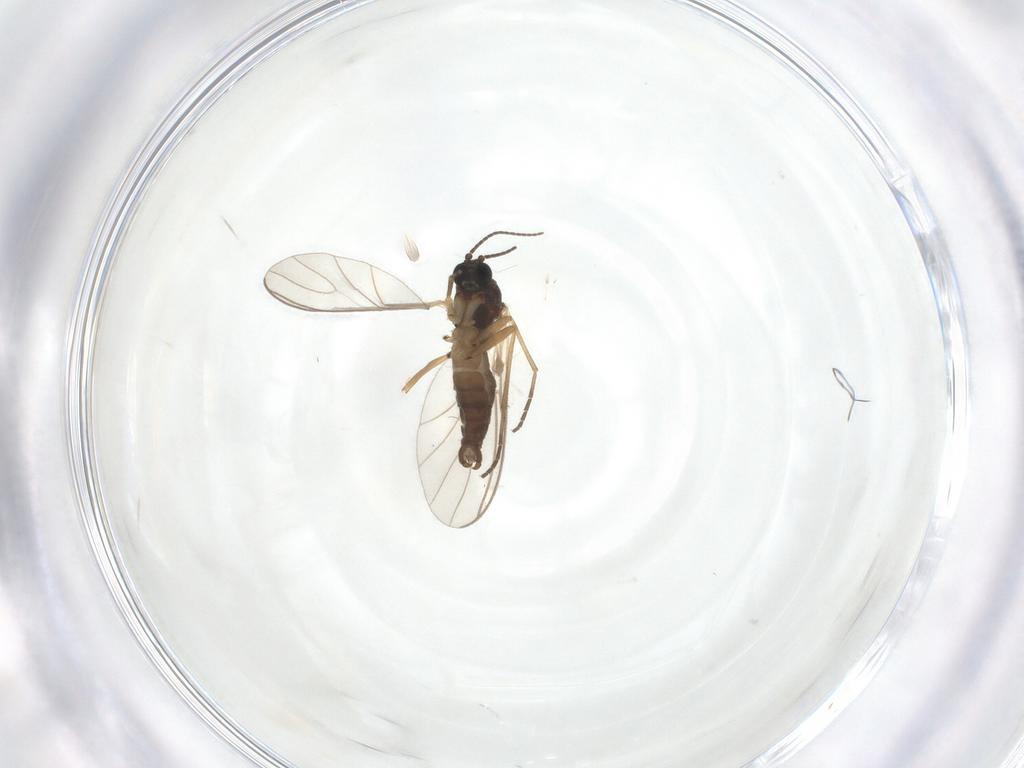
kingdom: Animalia
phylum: Arthropoda
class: Insecta
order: Diptera
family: Sciaridae
